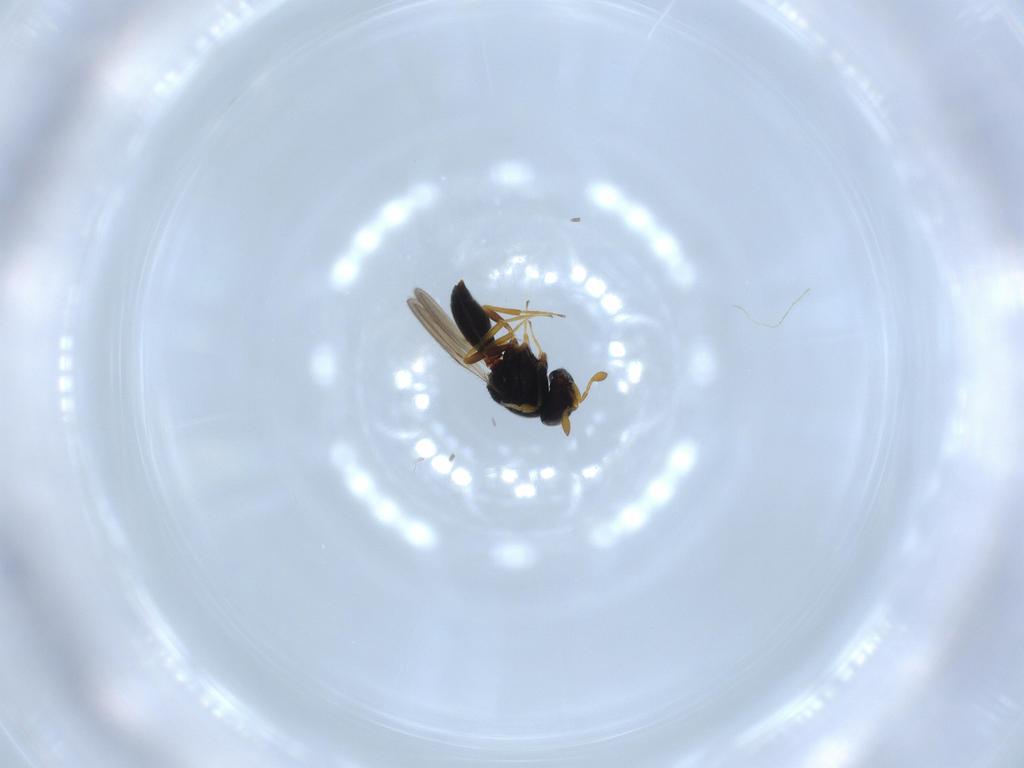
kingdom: Animalia
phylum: Arthropoda
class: Insecta
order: Hymenoptera
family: Scelionidae
